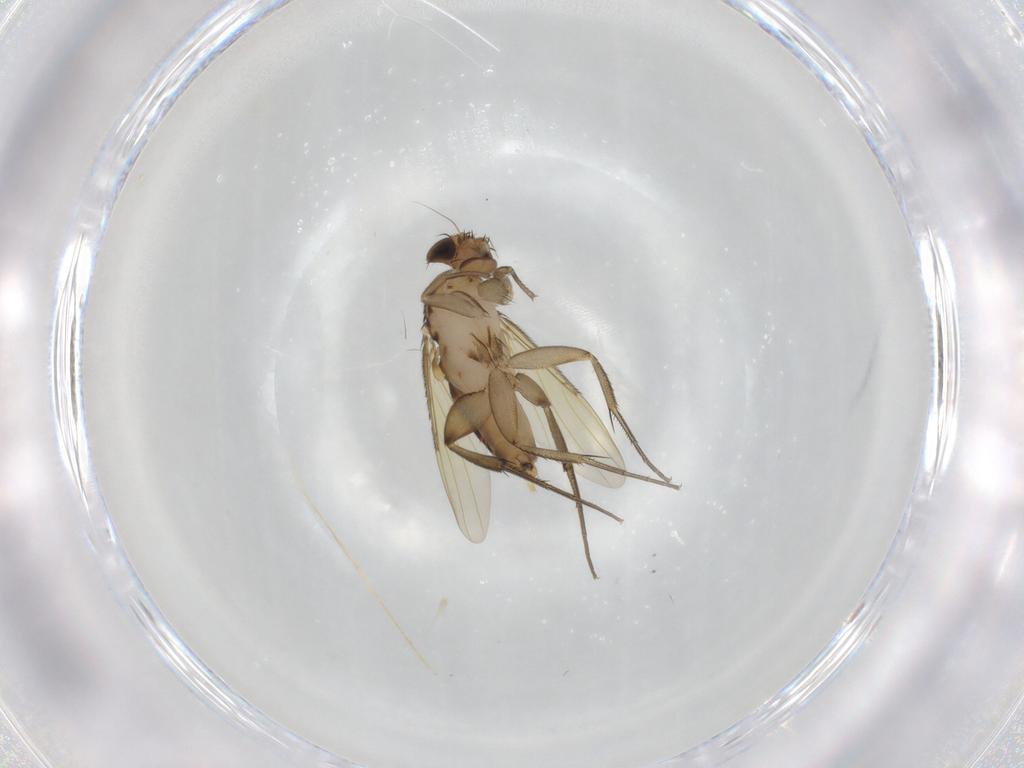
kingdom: Animalia
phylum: Arthropoda
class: Insecta
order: Diptera
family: Phoridae
